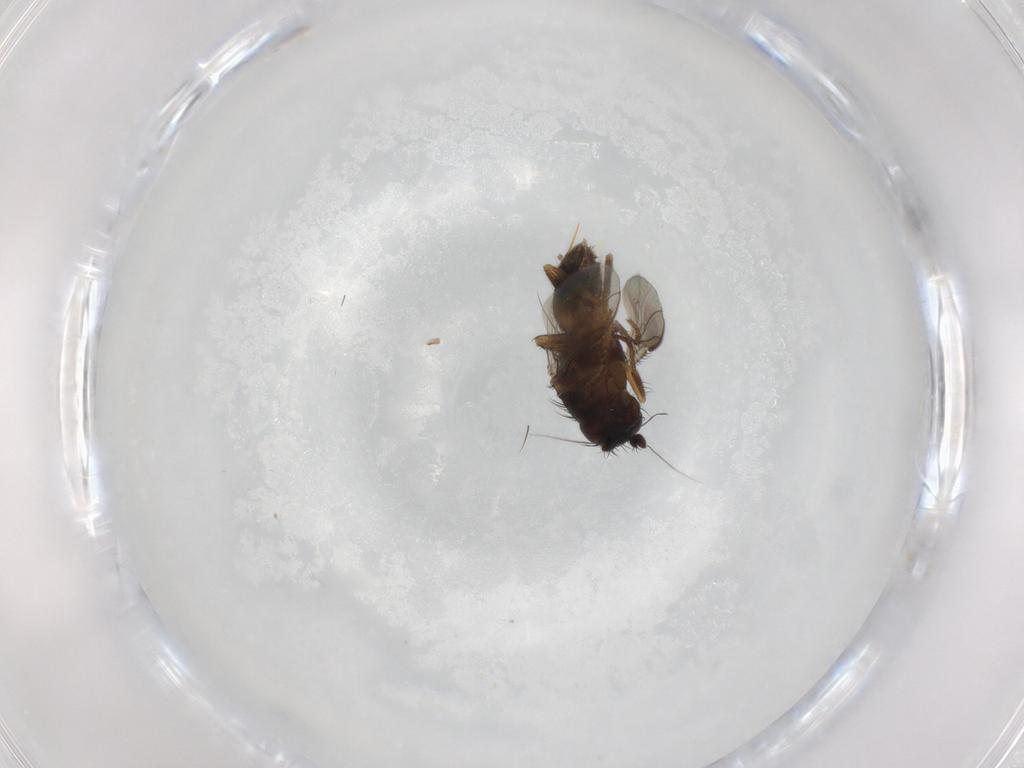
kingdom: Animalia
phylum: Arthropoda
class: Insecta
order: Diptera
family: Sphaeroceridae
